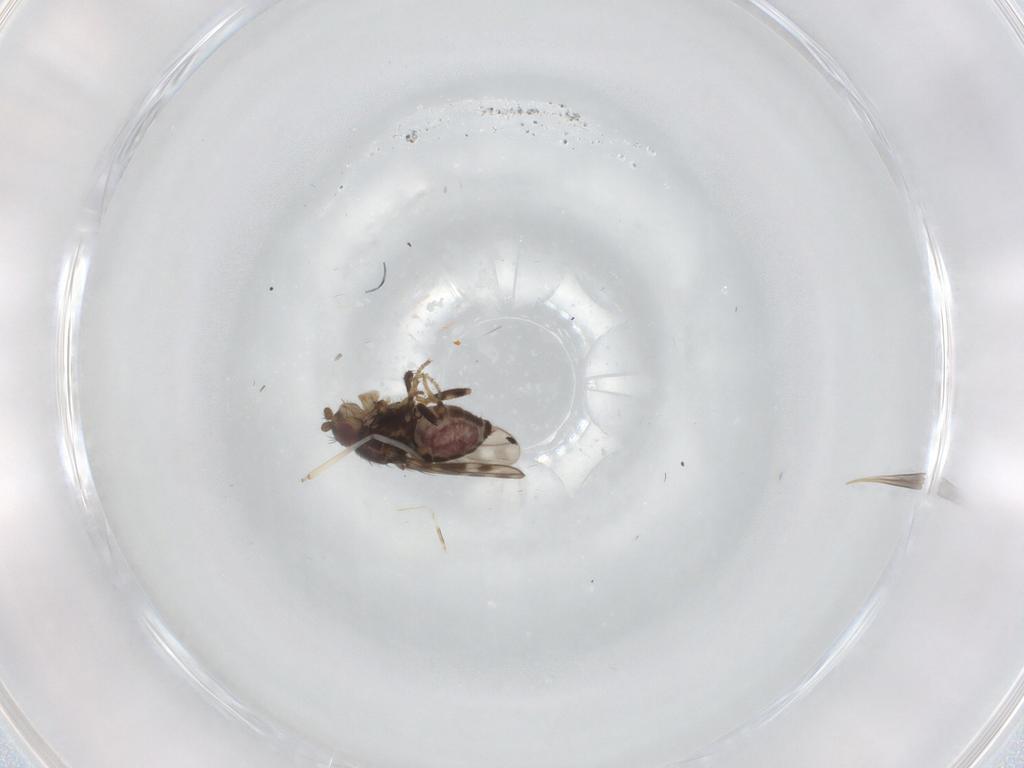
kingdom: Animalia
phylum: Arthropoda
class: Insecta
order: Diptera
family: Sphaeroceridae
